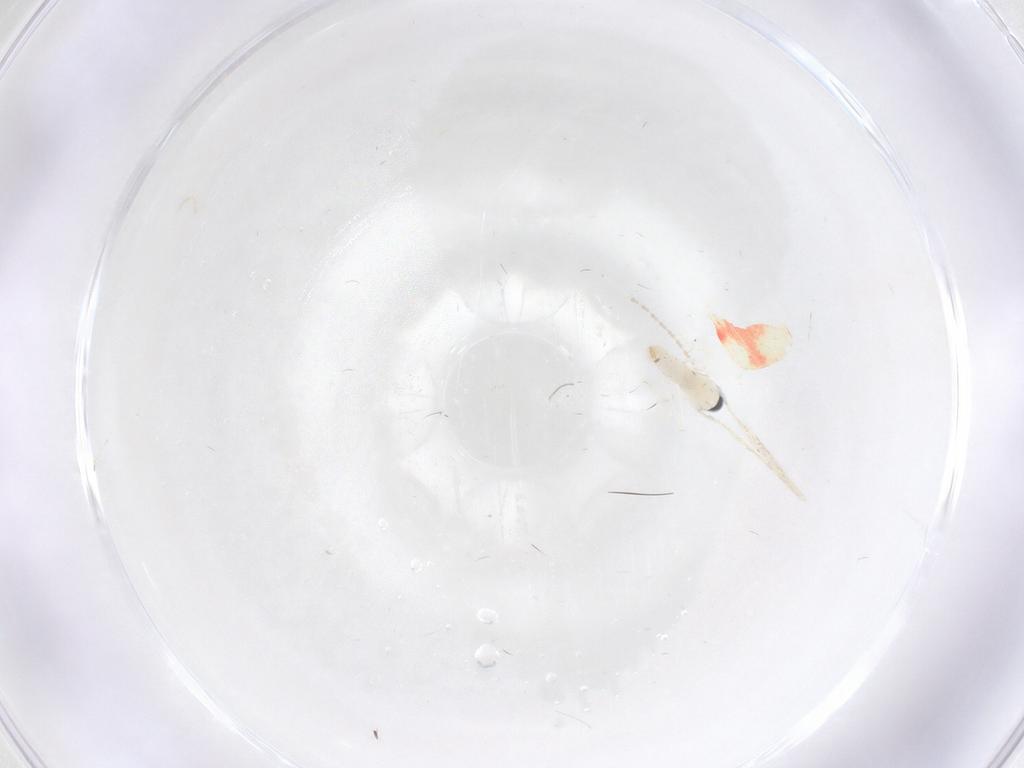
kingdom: Animalia
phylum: Arthropoda
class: Insecta
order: Diptera
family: Cecidomyiidae
